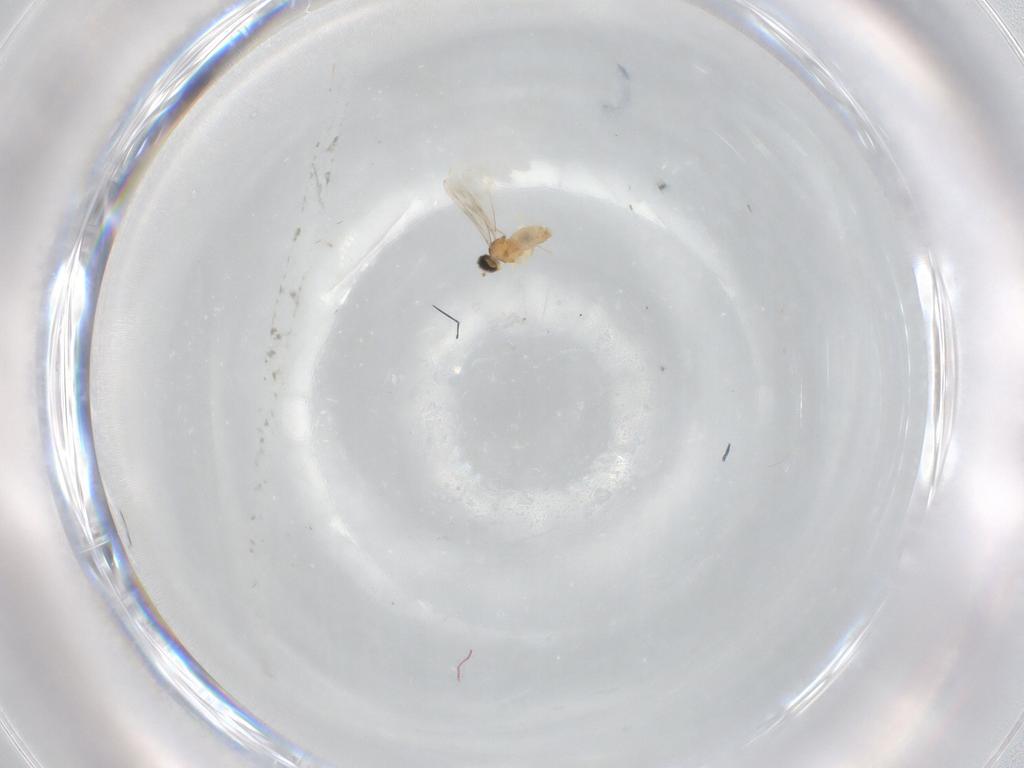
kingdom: Animalia
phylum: Arthropoda
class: Insecta
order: Diptera
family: Cecidomyiidae
